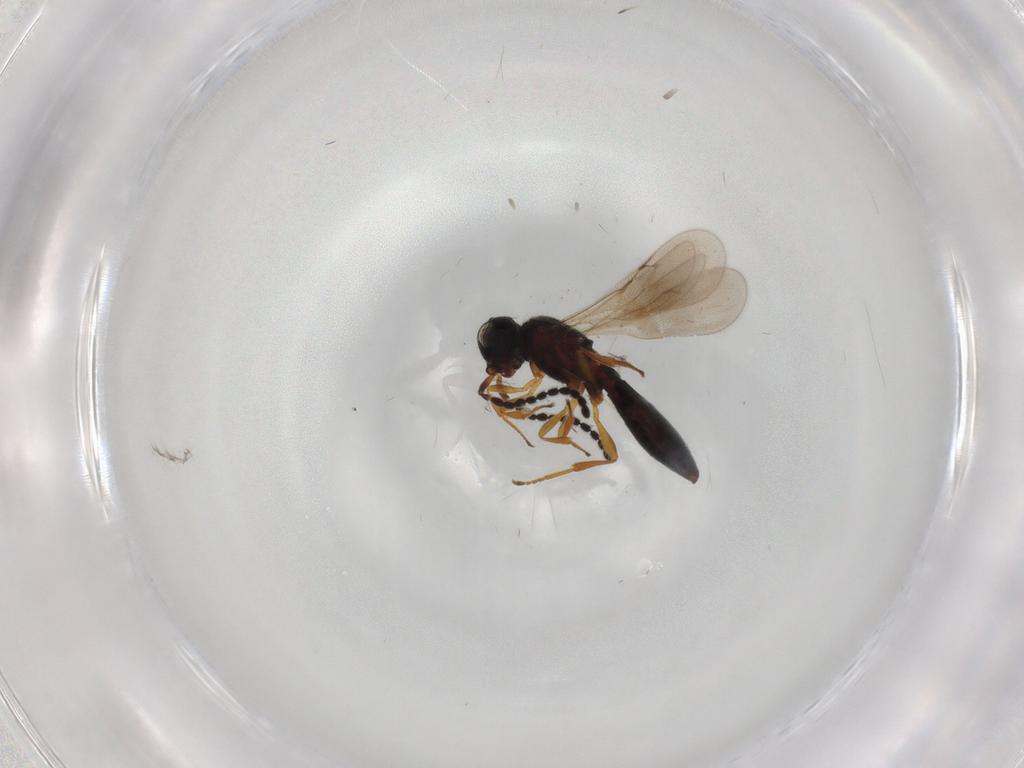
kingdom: Animalia
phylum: Arthropoda
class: Insecta
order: Hymenoptera
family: Scelionidae
